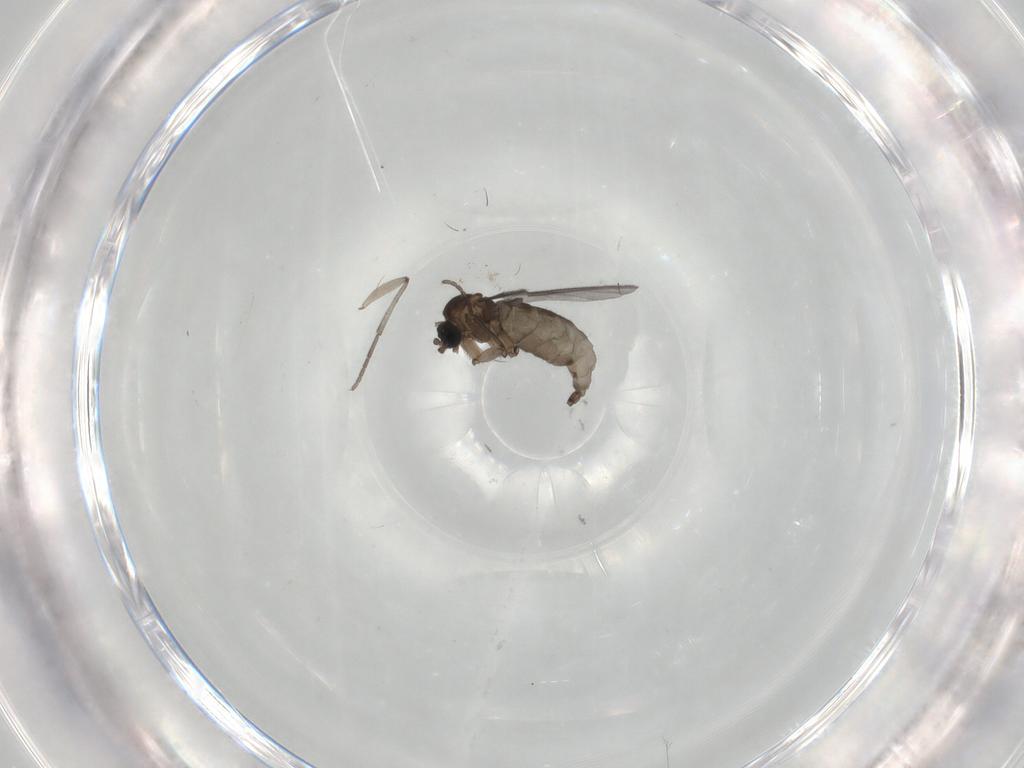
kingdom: Animalia
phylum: Arthropoda
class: Insecta
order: Diptera
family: Sciaridae
